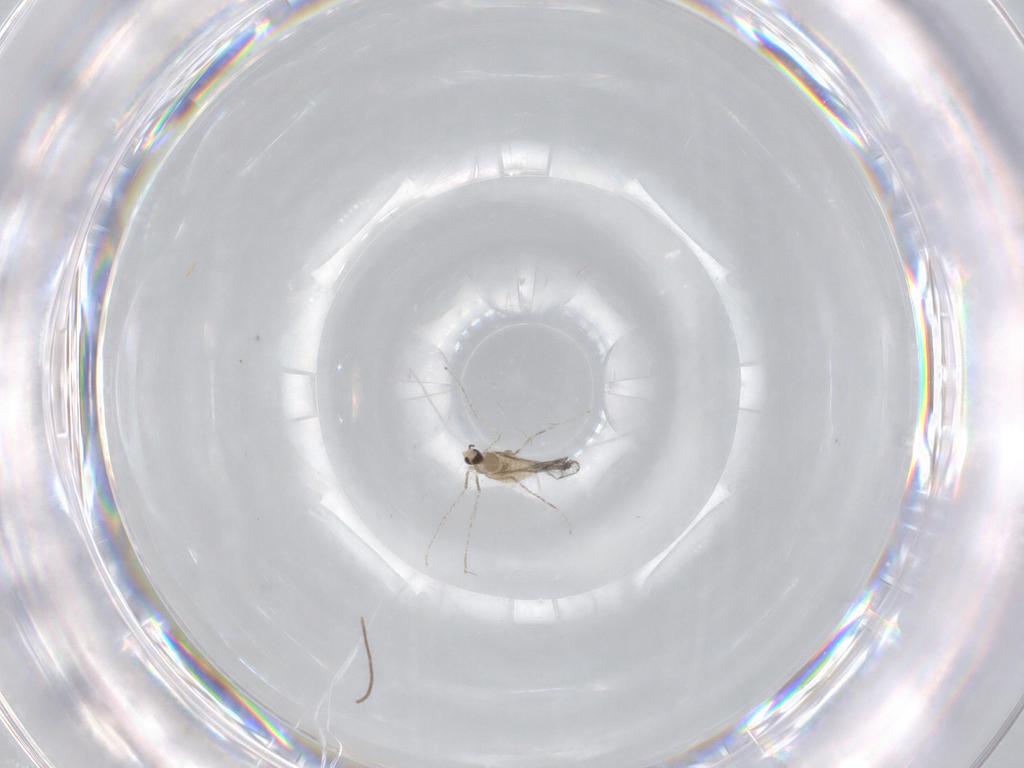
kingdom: Animalia
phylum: Arthropoda
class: Insecta
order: Diptera
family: Cecidomyiidae
